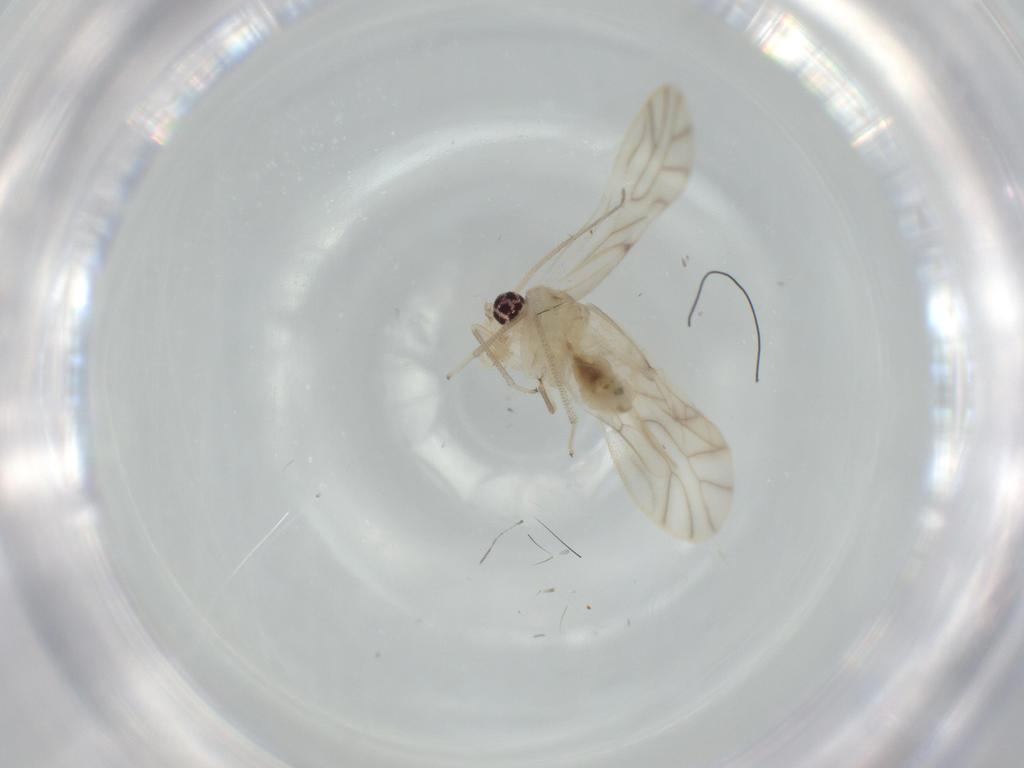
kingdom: Animalia
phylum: Arthropoda
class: Insecta
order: Psocodea
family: Caeciliusidae
